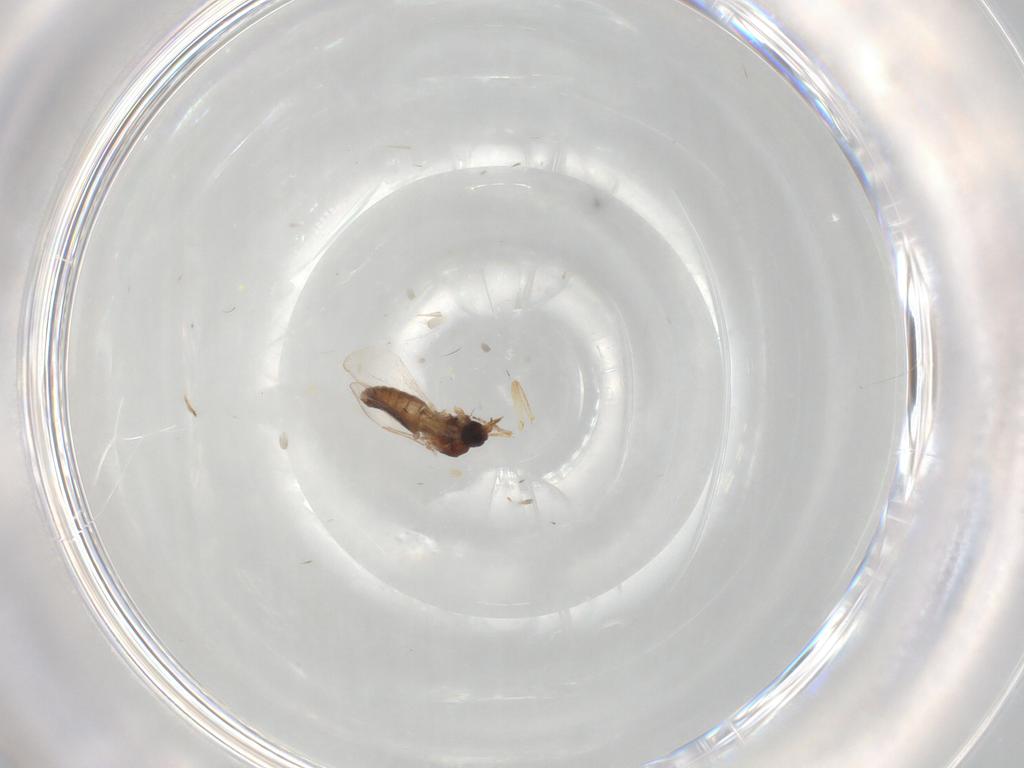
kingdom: Animalia
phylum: Arthropoda
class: Insecta
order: Diptera
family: Ceratopogonidae
